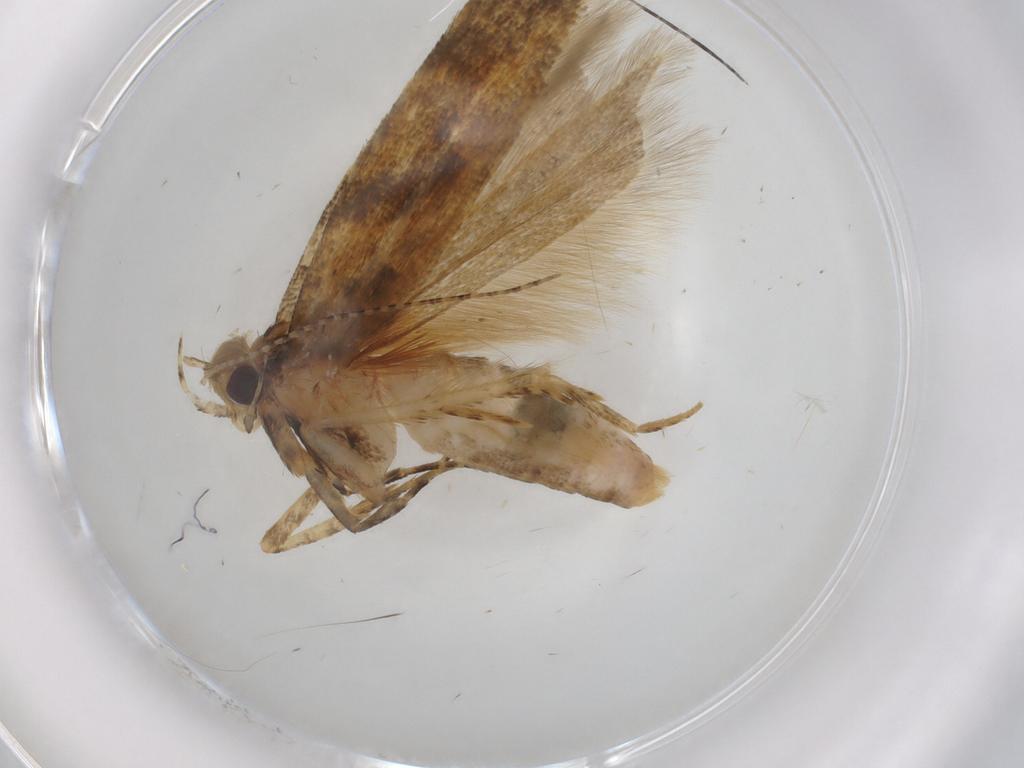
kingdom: Animalia
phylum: Arthropoda
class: Insecta
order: Lepidoptera
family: Gelechiidae
